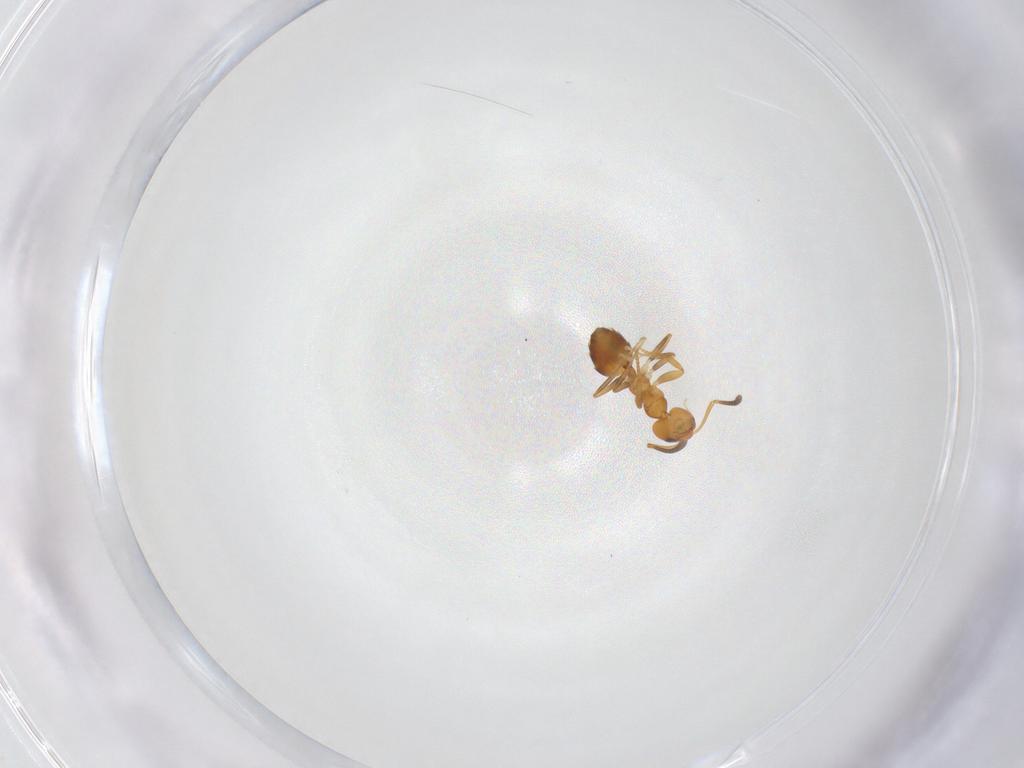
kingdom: Animalia
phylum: Arthropoda
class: Insecta
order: Hymenoptera
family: Formicidae
